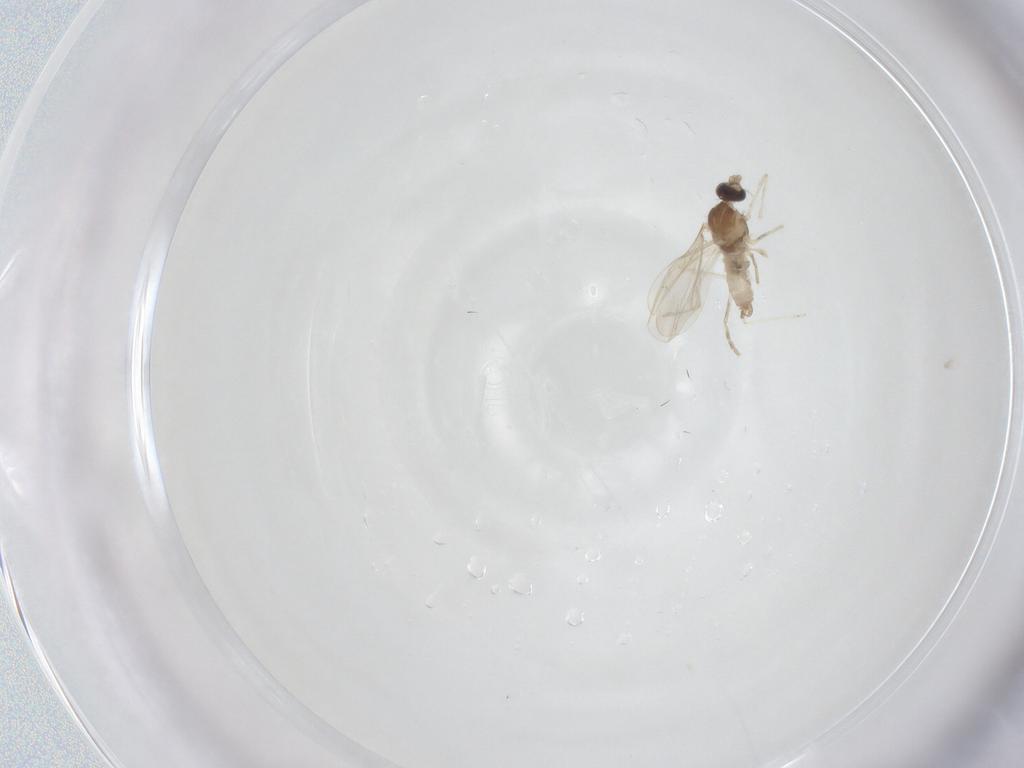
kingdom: Animalia
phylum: Arthropoda
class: Insecta
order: Diptera
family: Cecidomyiidae
